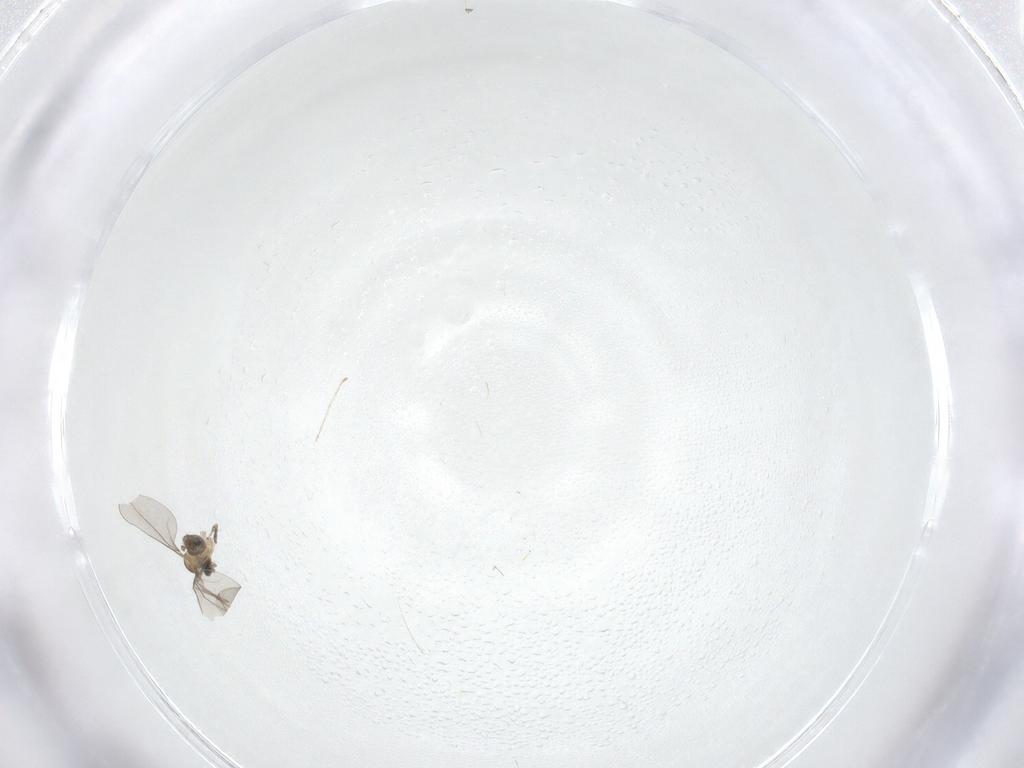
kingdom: Animalia
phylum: Arthropoda
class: Insecta
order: Diptera
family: Cecidomyiidae
